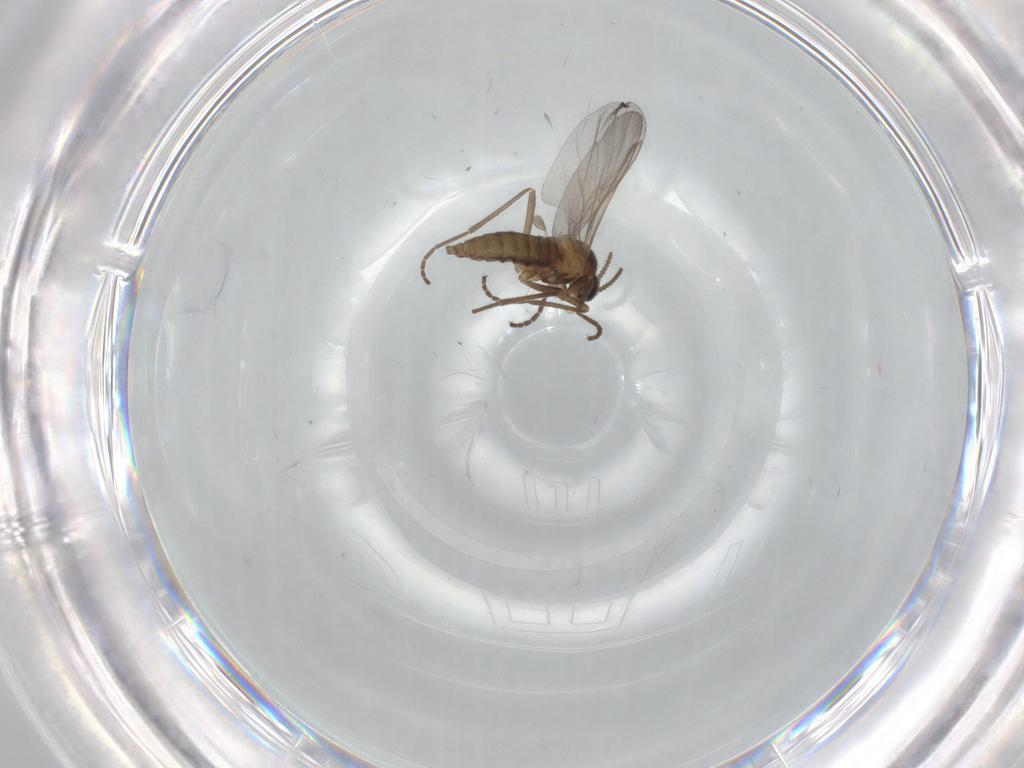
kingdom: Animalia
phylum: Arthropoda
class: Insecta
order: Diptera
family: Cecidomyiidae
